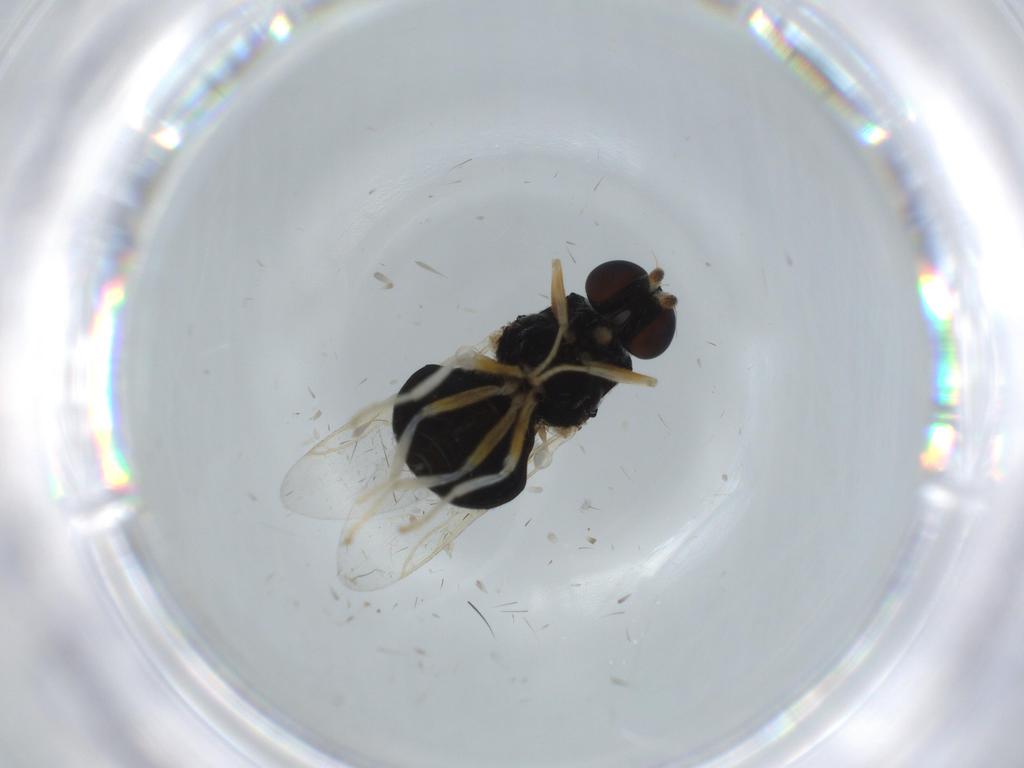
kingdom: Animalia
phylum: Arthropoda
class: Insecta
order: Diptera
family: Stratiomyidae
